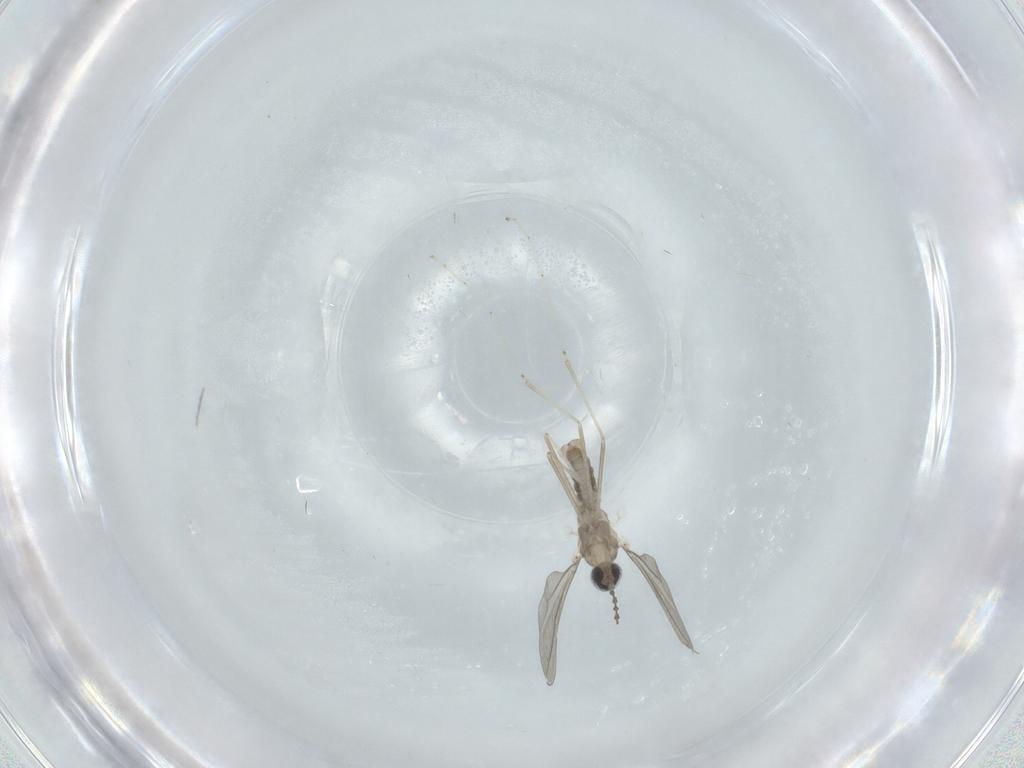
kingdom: Animalia
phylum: Arthropoda
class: Insecta
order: Diptera
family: Cecidomyiidae
